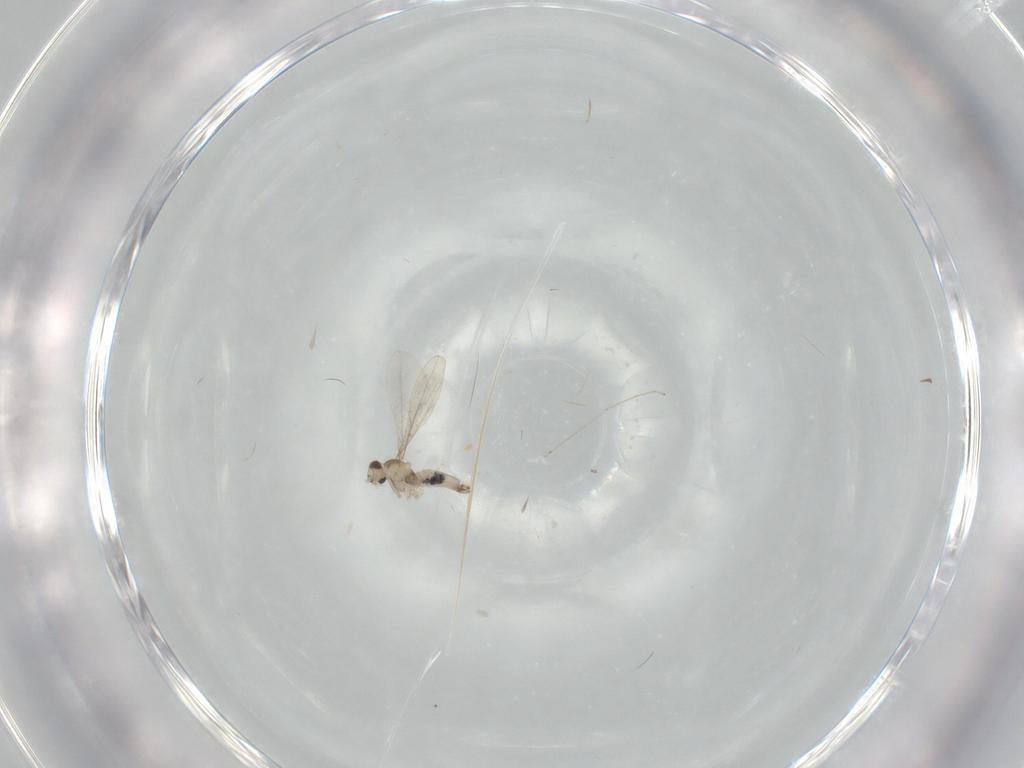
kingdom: Animalia
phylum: Arthropoda
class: Insecta
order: Diptera
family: Cecidomyiidae
